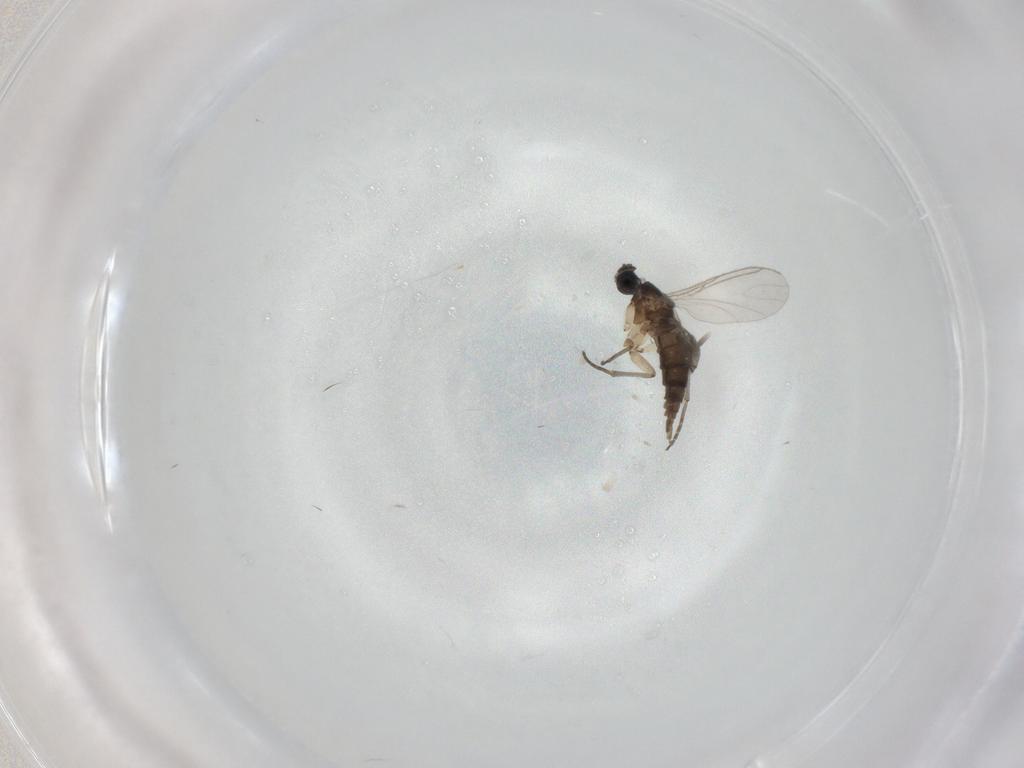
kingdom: Animalia
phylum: Arthropoda
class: Insecta
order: Diptera
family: Sciaridae
